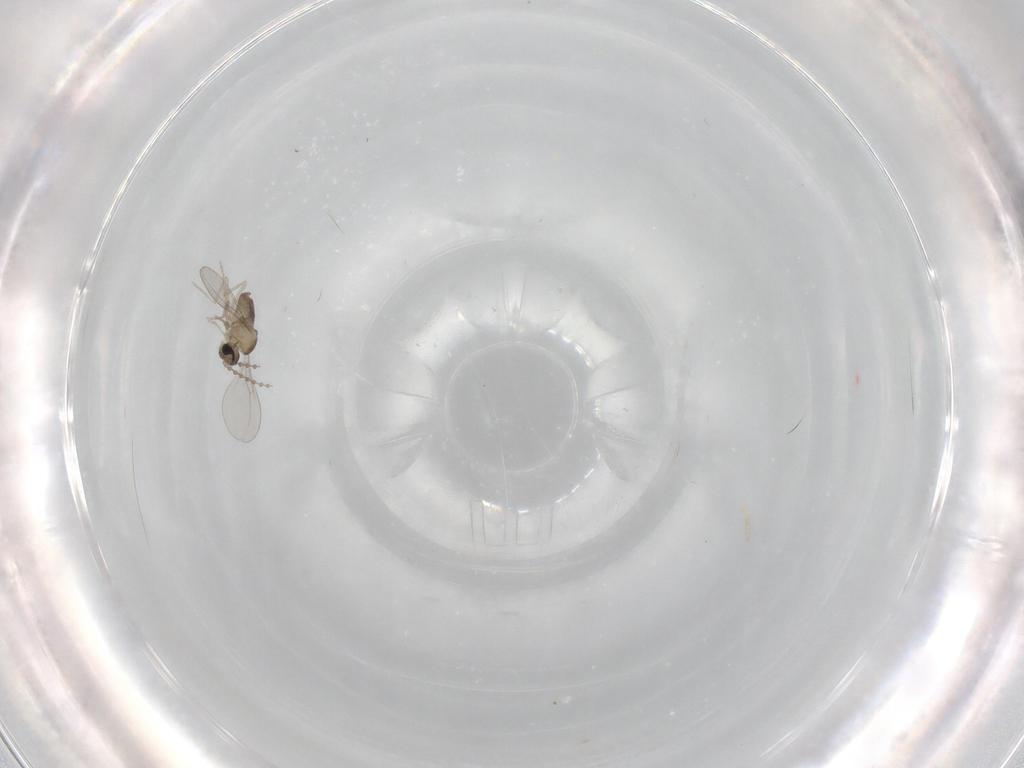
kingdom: Animalia
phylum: Arthropoda
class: Insecta
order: Diptera
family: Cecidomyiidae
